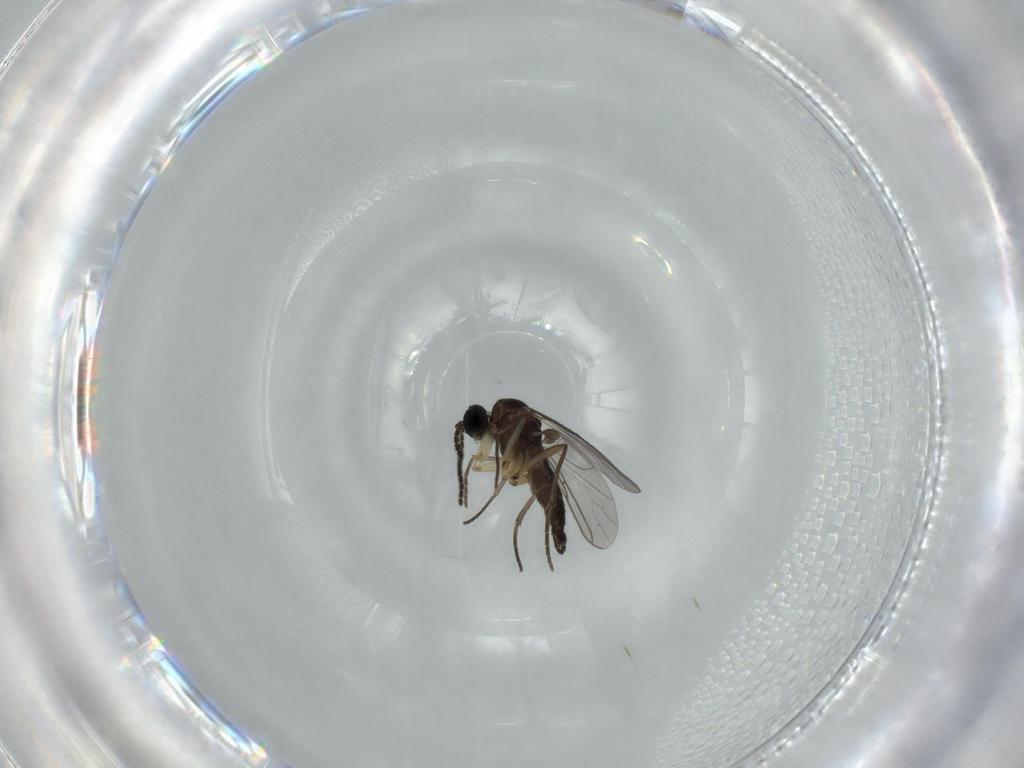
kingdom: Animalia
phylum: Arthropoda
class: Insecta
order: Diptera
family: Sciaridae
